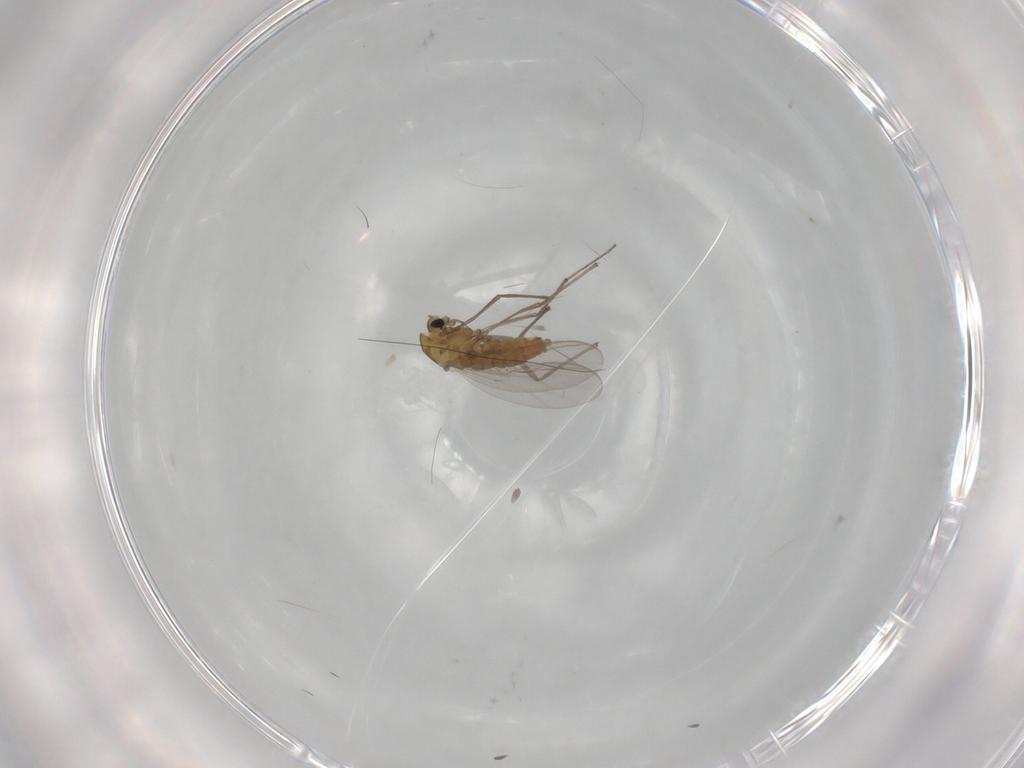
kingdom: Animalia
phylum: Arthropoda
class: Insecta
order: Diptera
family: Chironomidae
